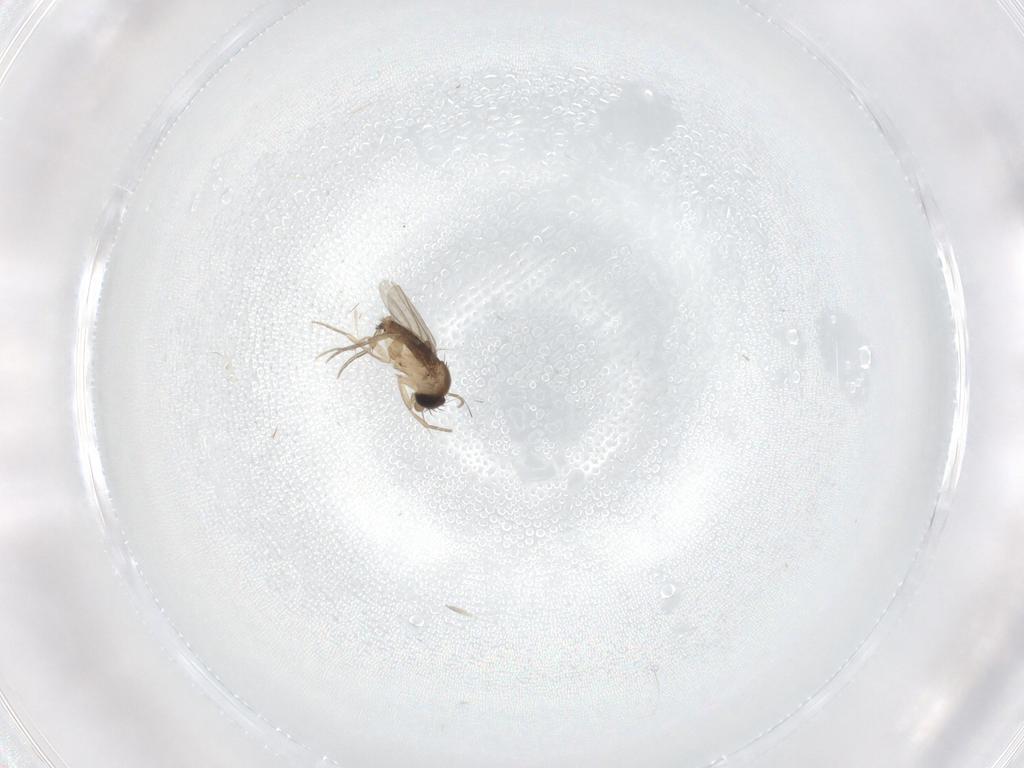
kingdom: Animalia
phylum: Arthropoda
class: Insecta
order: Diptera
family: Phoridae
